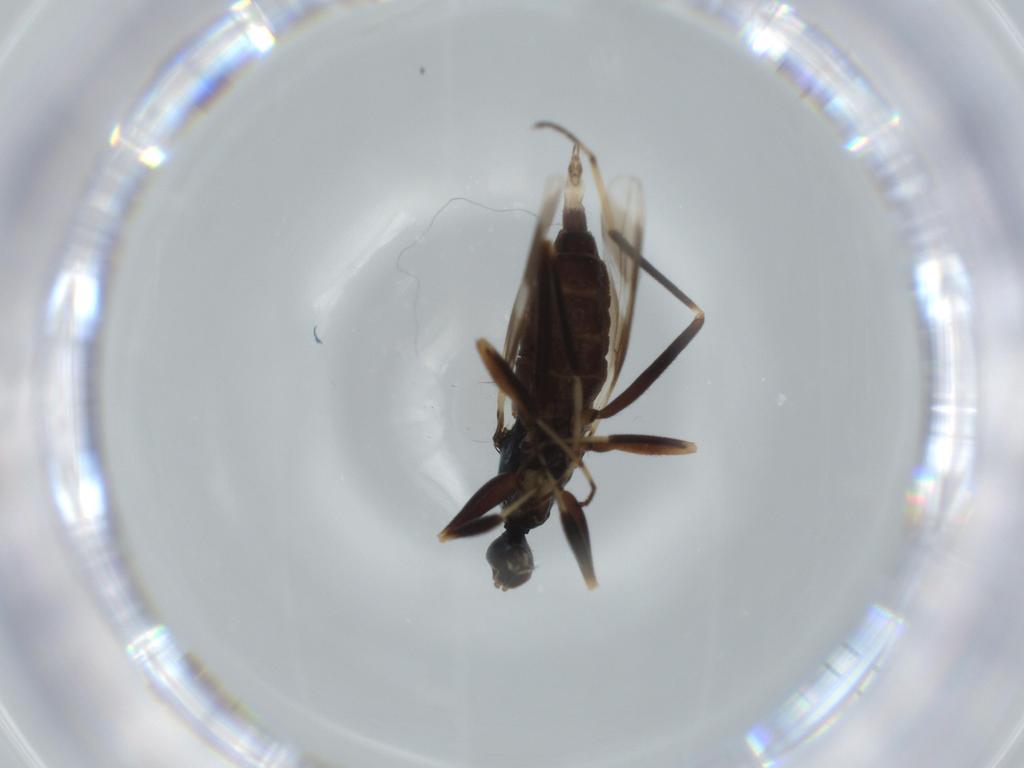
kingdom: Animalia
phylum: Arthropoda
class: Insecta
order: Diptera
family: Hybotidae
